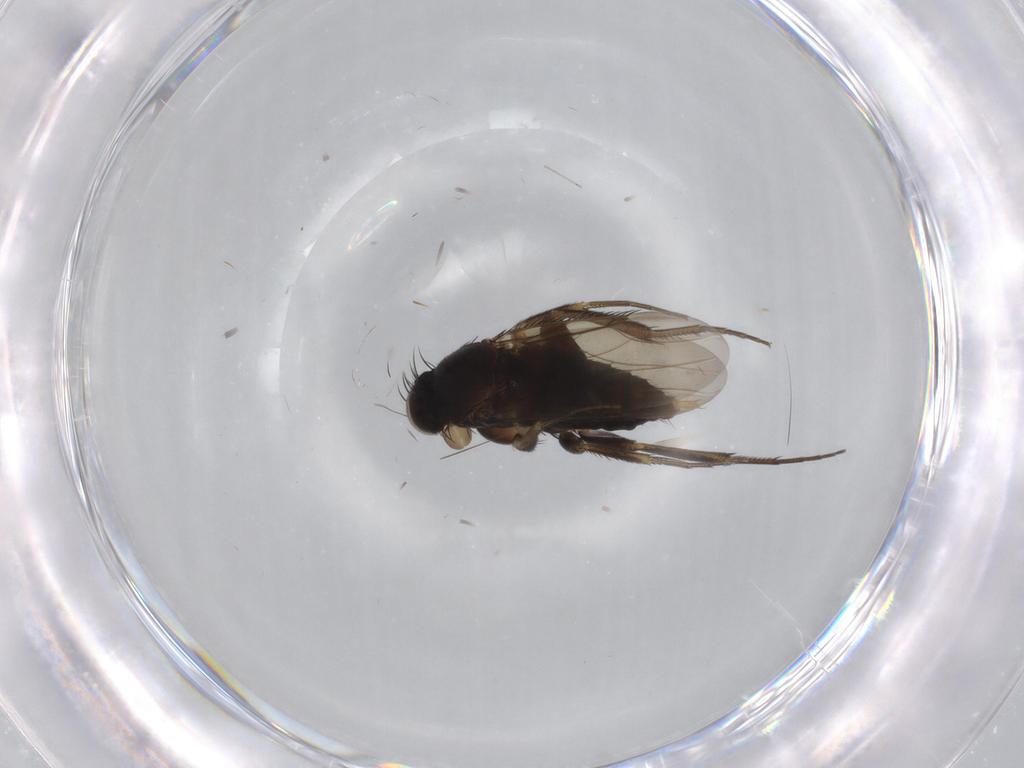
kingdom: Animalia
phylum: Arthropoda
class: Insecta
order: Diptera
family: Phoridae
